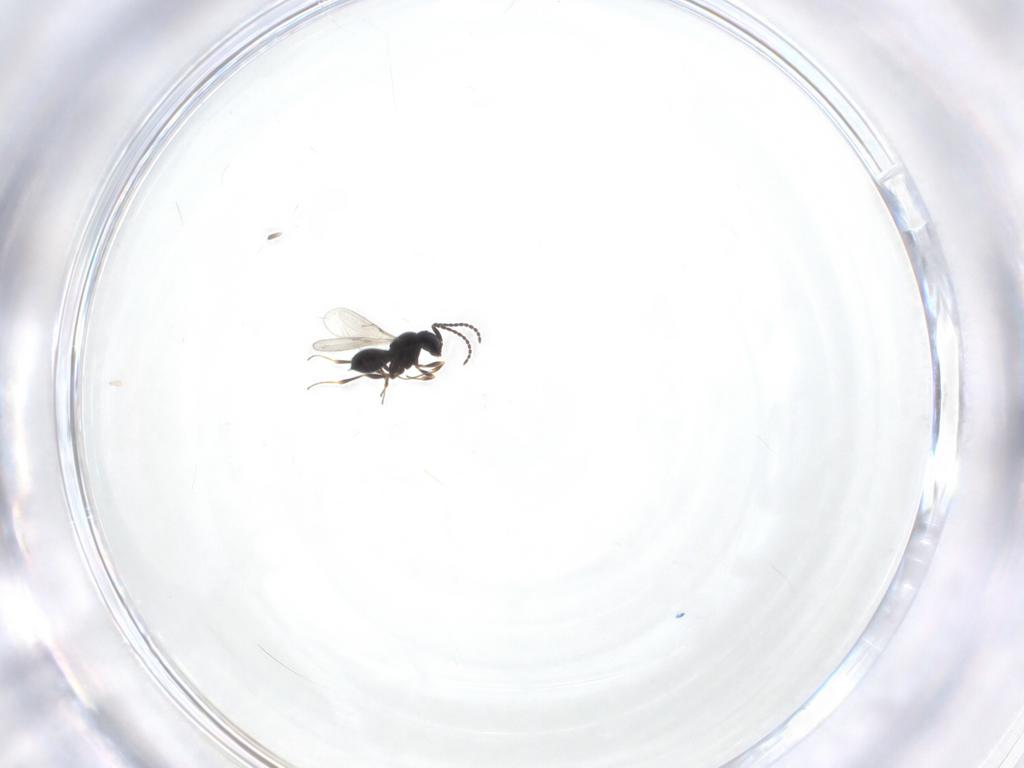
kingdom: Animalia
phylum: Arthropoda
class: Insecta
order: Hymenoptera
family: Scelionidae
